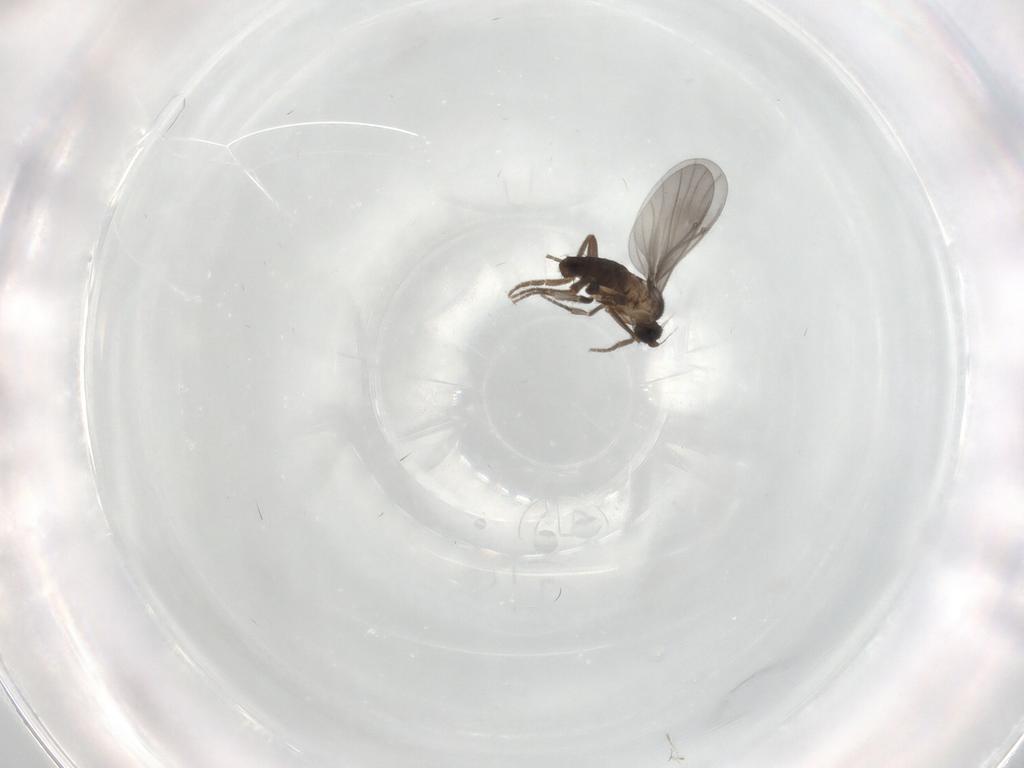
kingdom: Animalia
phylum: Arthropoda
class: Insecta
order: Diptera
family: Phoridae
